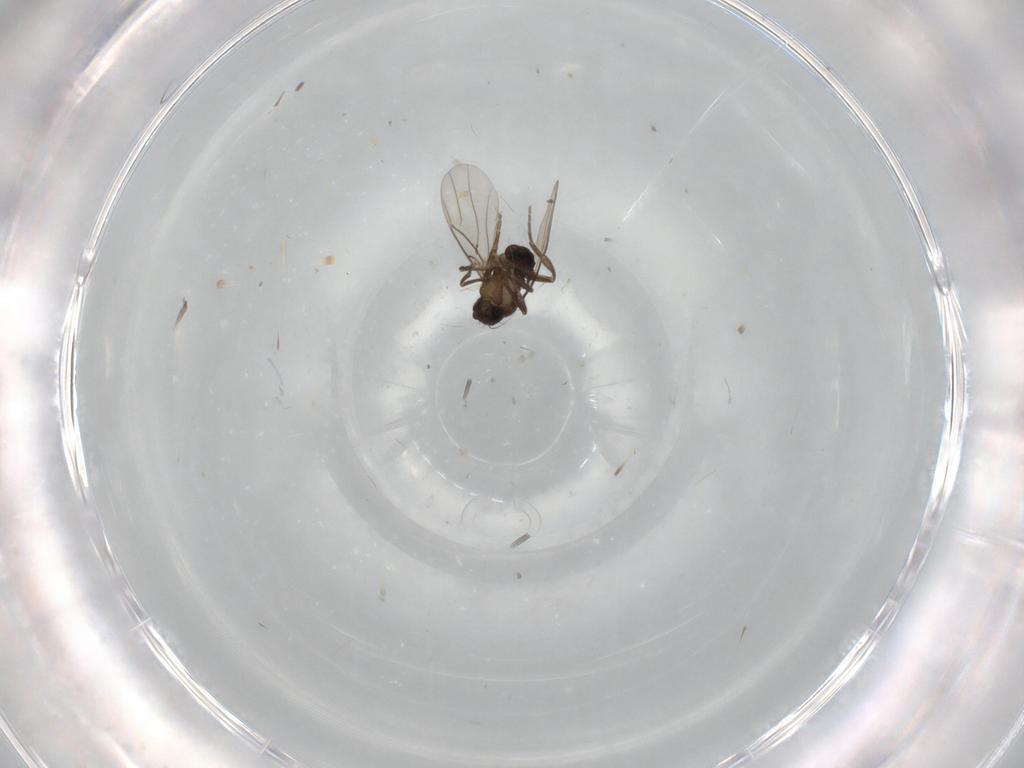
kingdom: Animalia
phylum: Arthropoda
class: Insecta
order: Diptera
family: Phoridae
